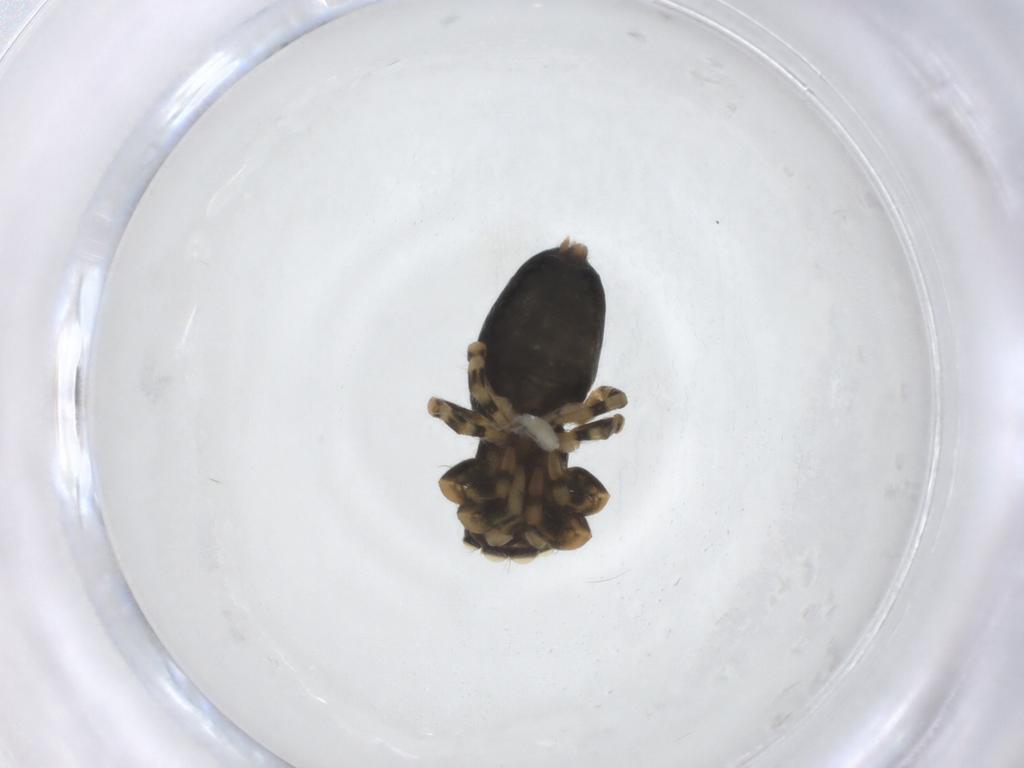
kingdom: Animalia
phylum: Arthropoda
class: Arachnida
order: Araneae
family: Salticidae
